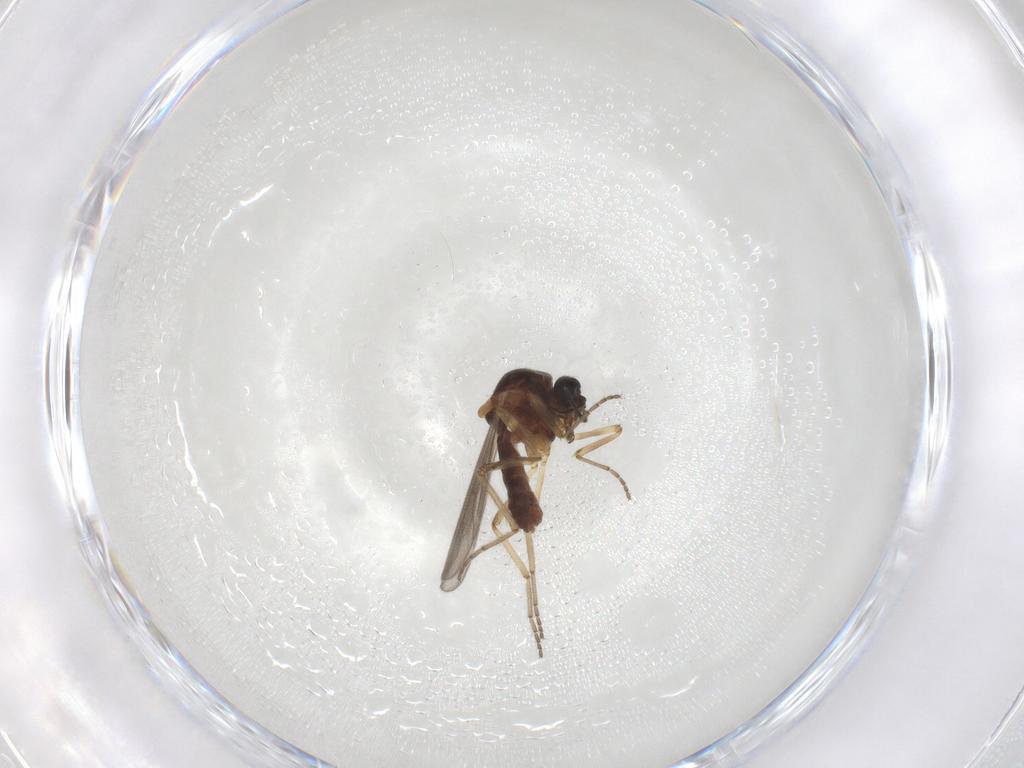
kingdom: Animalia
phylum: Arthropoda
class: Insecta
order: Diptera
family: Ceratopogonidae
